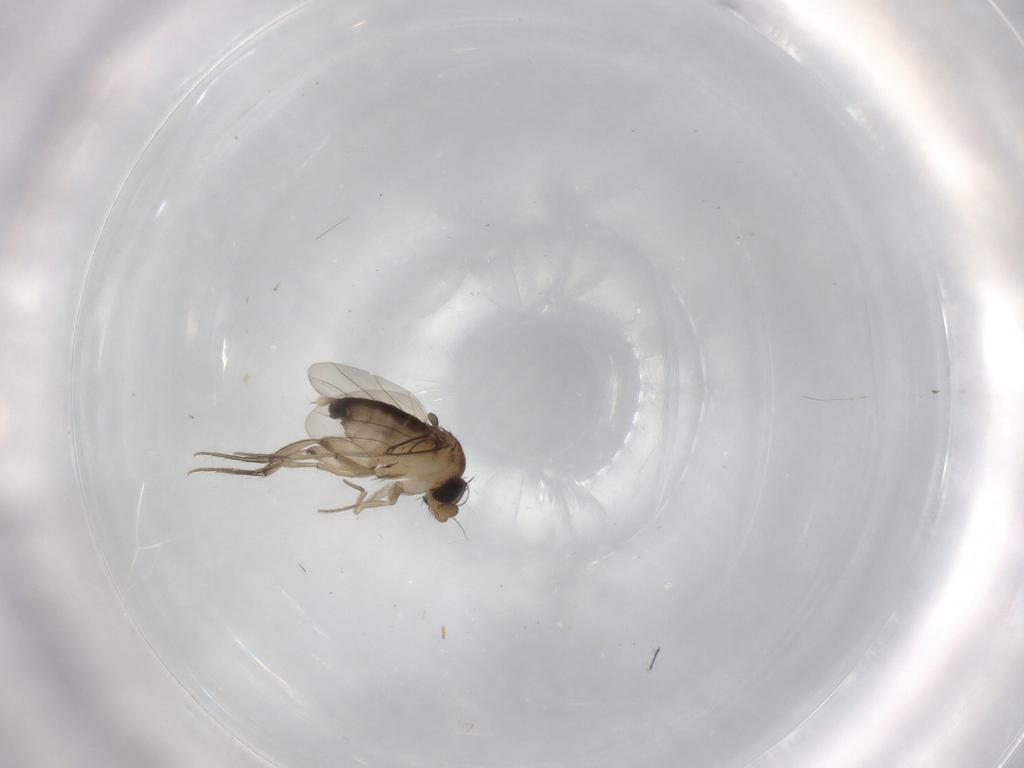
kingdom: Animalia
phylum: Arthropoda
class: Insecta
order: Diptera
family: Phoridae
